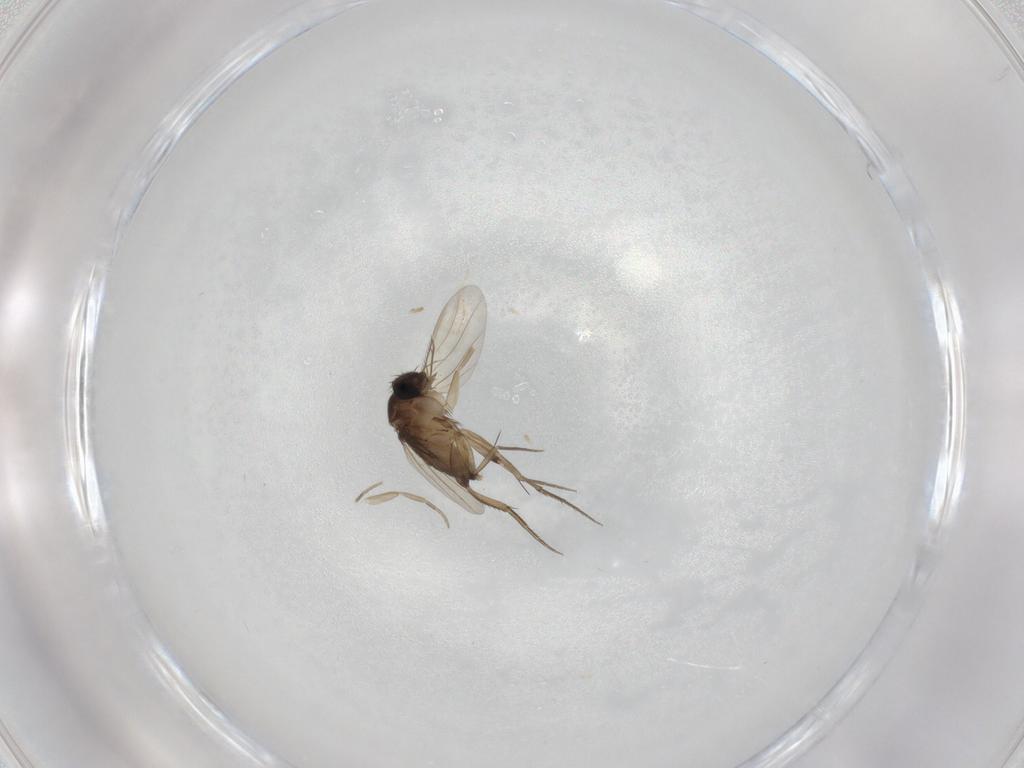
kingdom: Animalia
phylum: Arthropoda
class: Insecta
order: Diptera
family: Phoridae
